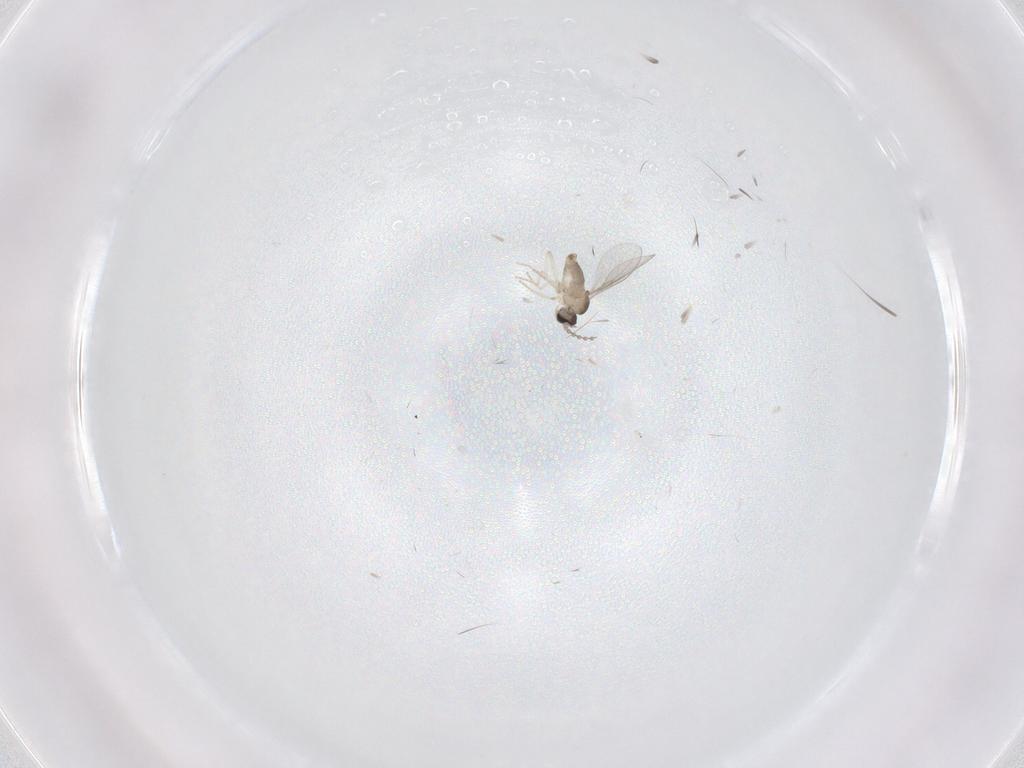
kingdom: Animalia
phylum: Arthropoda
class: Insecta
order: Diptera
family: Cecidomyiidae
